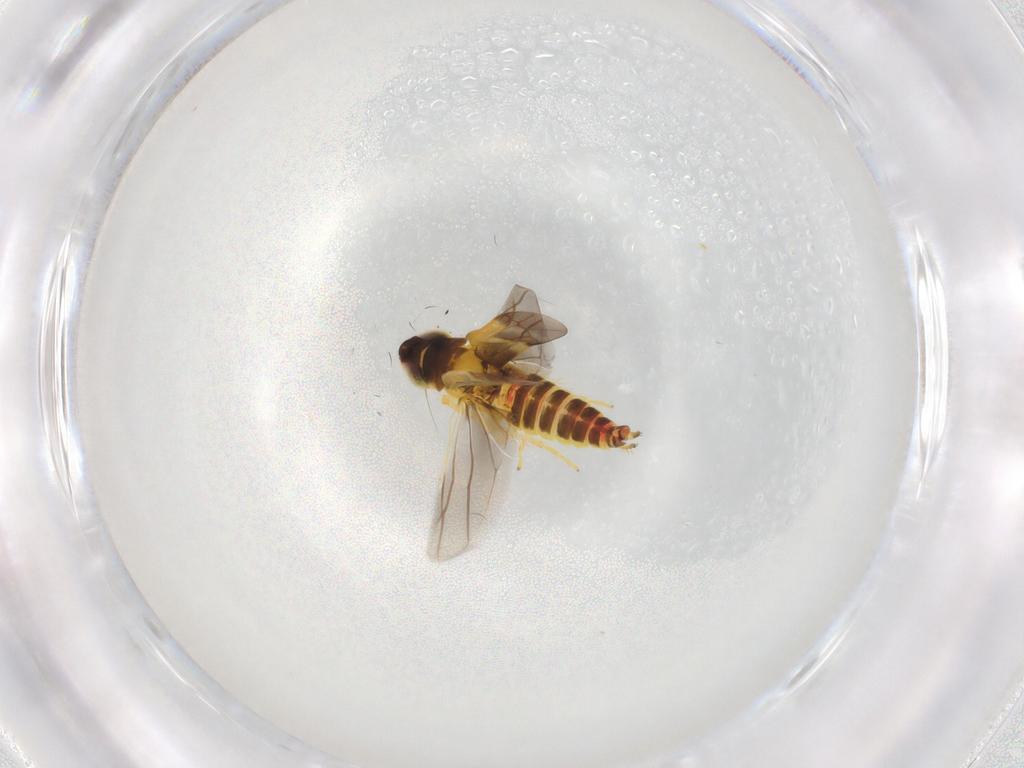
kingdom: Animalia
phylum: Arthropoda
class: Insecta
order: Hemiptera
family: Cicadellidae
